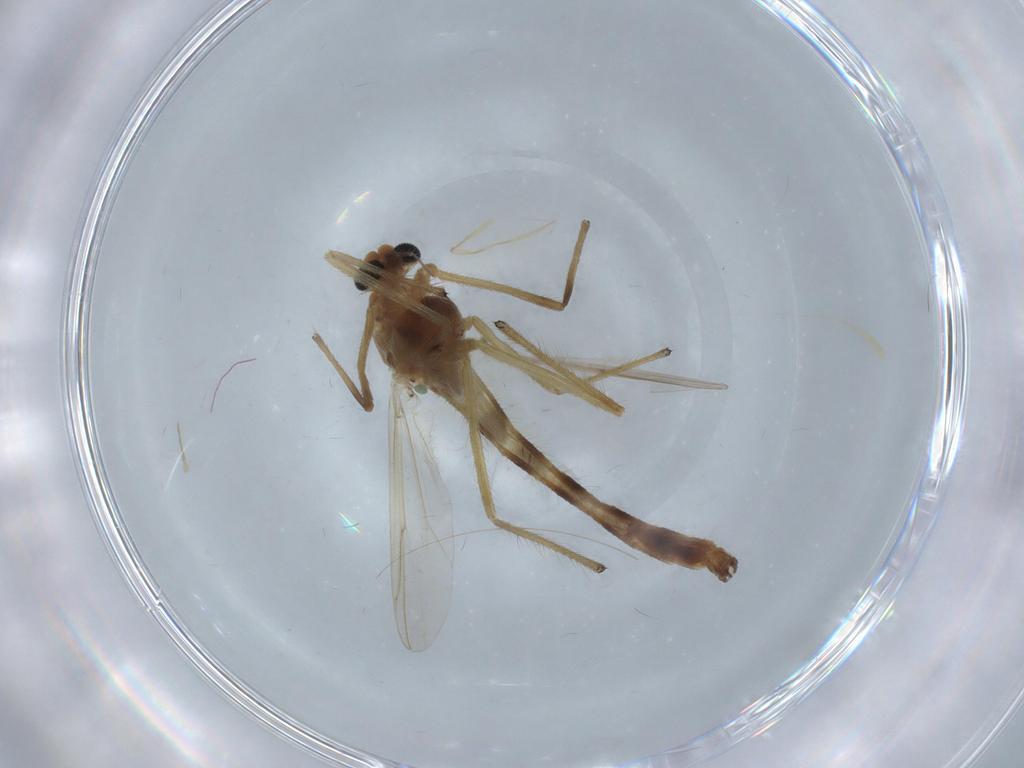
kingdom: Animalia
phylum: Arthropoda
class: Insecta
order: Diptera
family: Chironomidae
